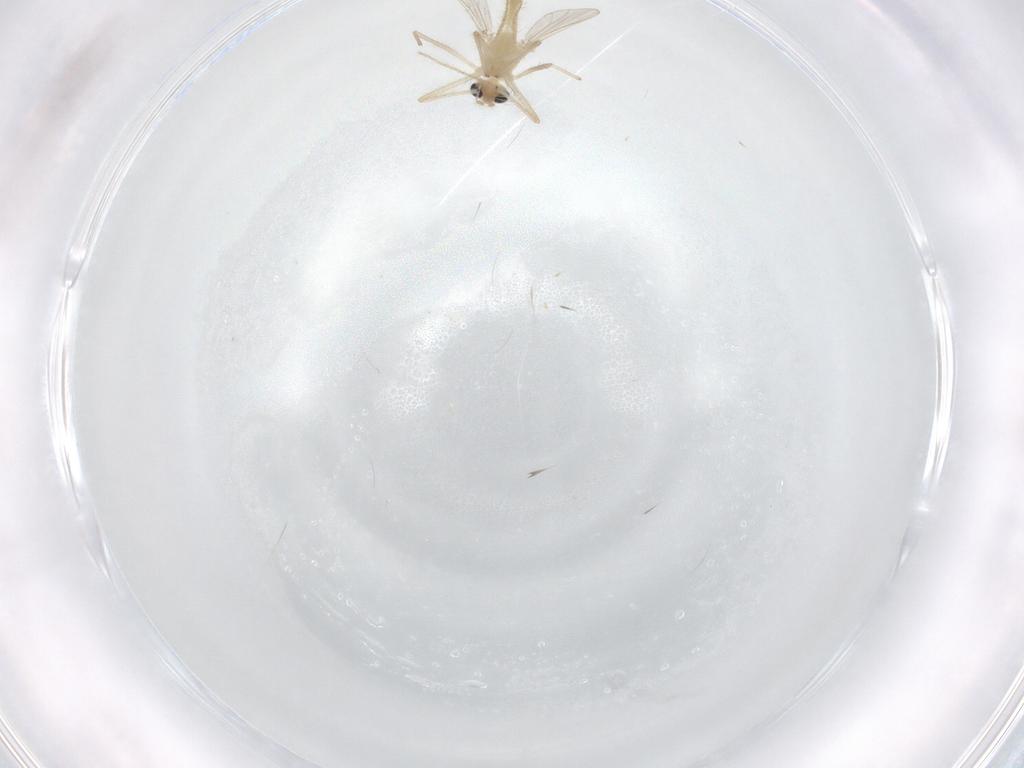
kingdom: Animalia
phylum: Arthropoda
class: Insecta
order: Diptera
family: Chironomidae
